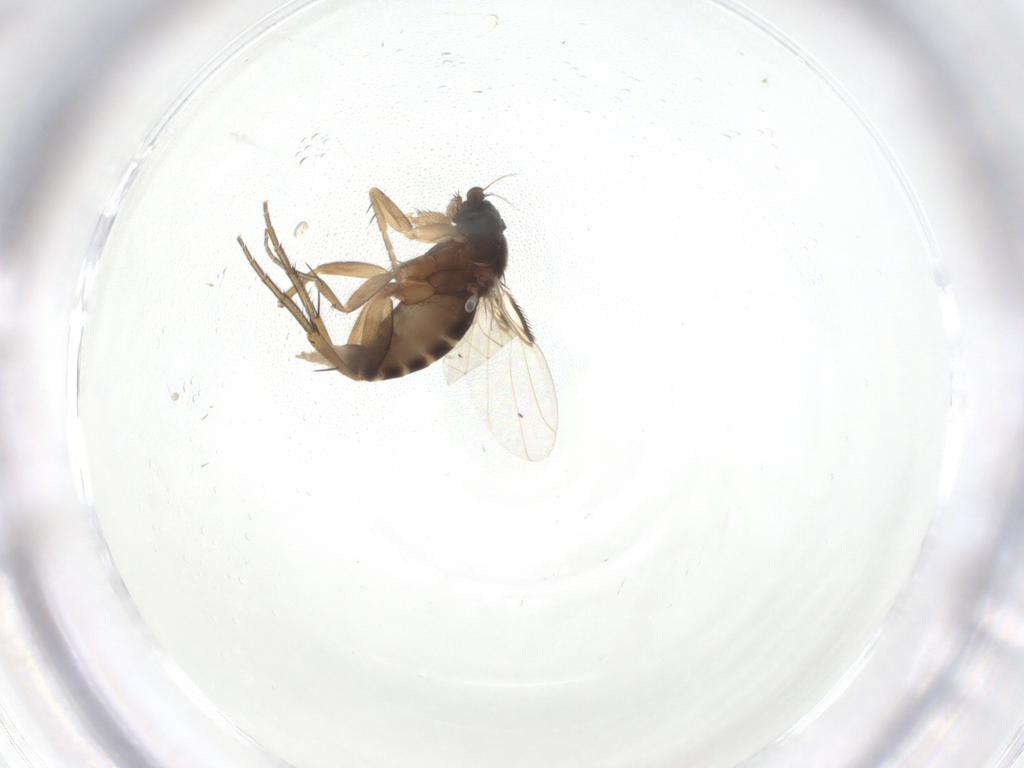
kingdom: Animalia
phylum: Arthropoda
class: Insecta
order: Diptera
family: Phoridae
